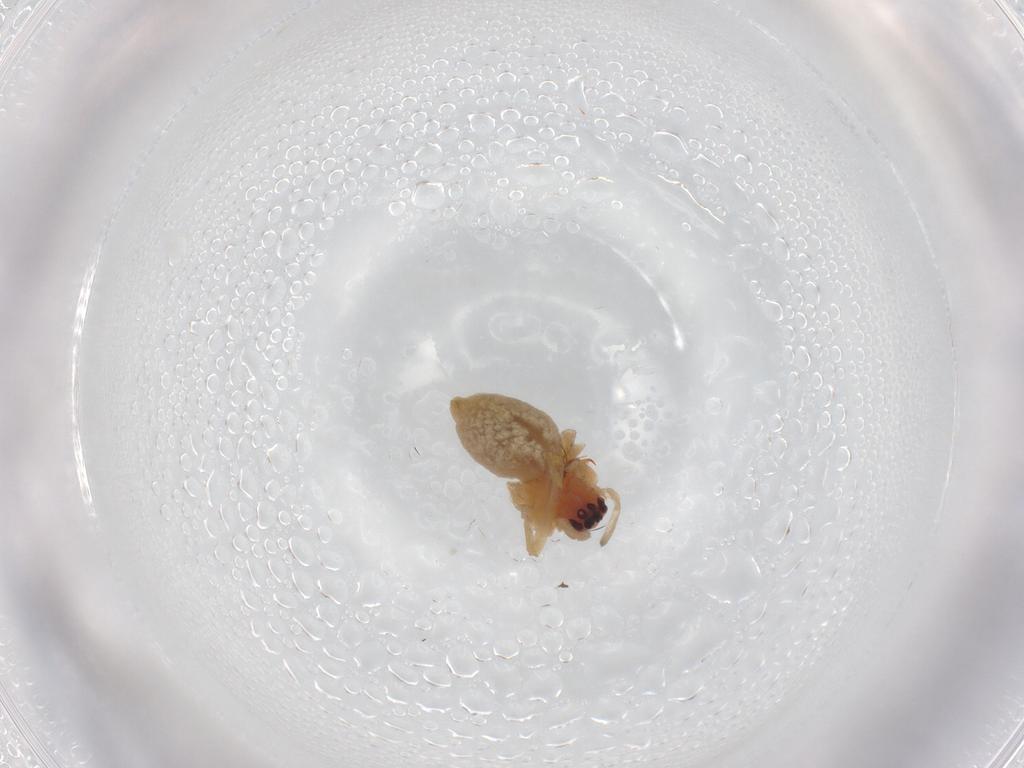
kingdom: Animalia
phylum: Arthropoda
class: Arachnida
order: Araneae
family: Cheiracanthiidae
